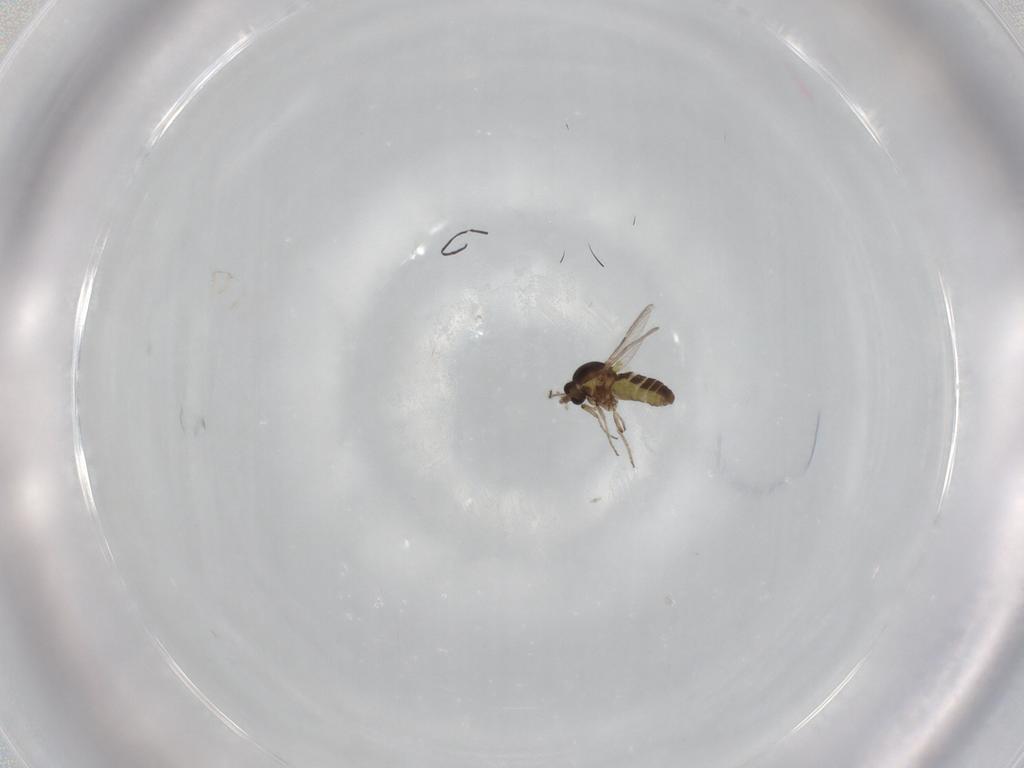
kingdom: Animalia
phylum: Arthropoda
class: Insecta
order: Diptera
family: Ceratopogonidae
